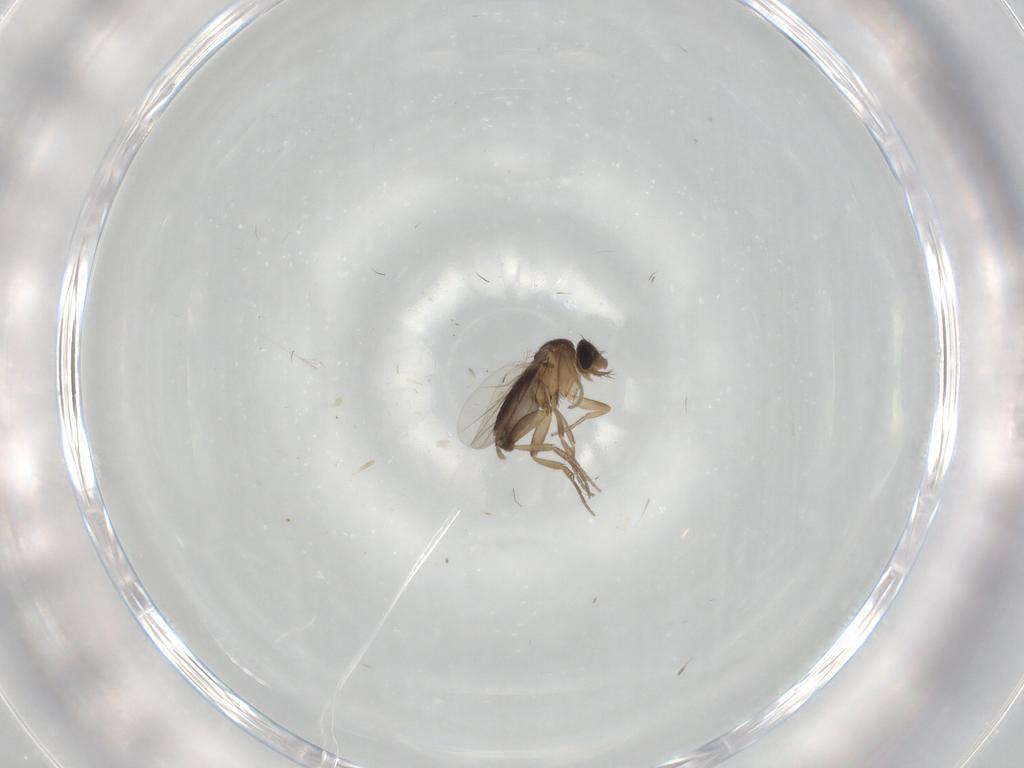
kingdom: Animalia
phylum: Arthropoda
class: Insecta
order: Diptera
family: Phoridae
